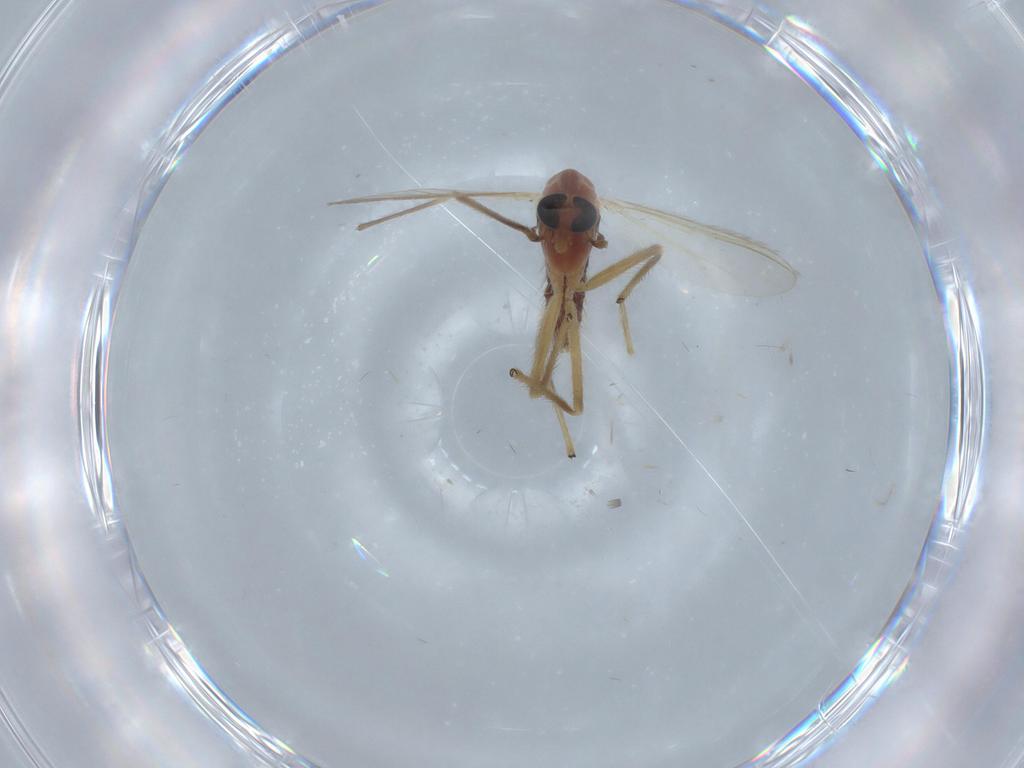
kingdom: Animalia
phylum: Arthropoda
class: Insecta
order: Diptera
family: Chironomidae
